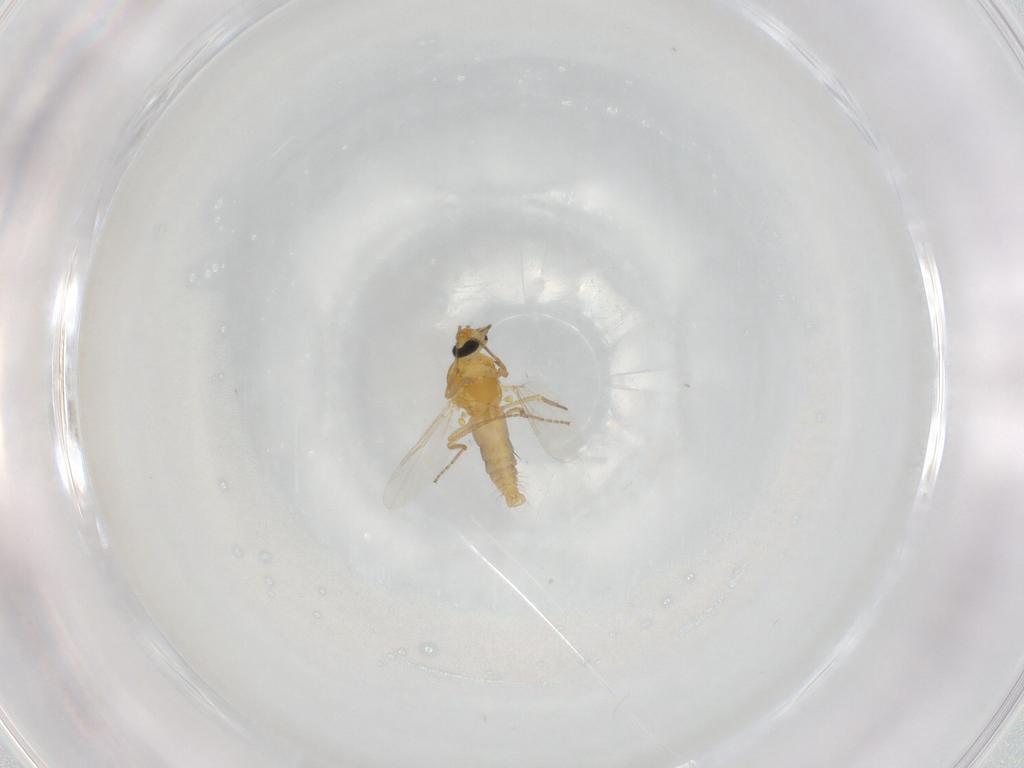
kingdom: Animalia
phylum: Arthropoda
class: Insecta
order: Diptera
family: Ceratopogonidae
